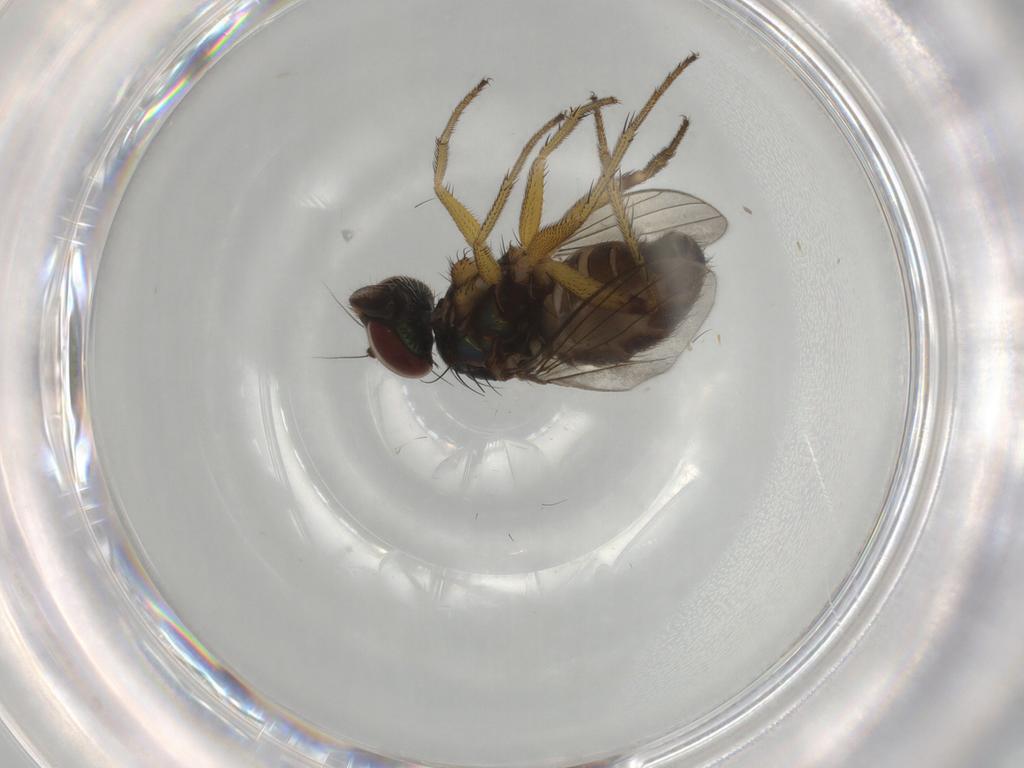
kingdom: Animalia
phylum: Arthropoda
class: Insecta
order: Diptera
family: Dolichopodidae
